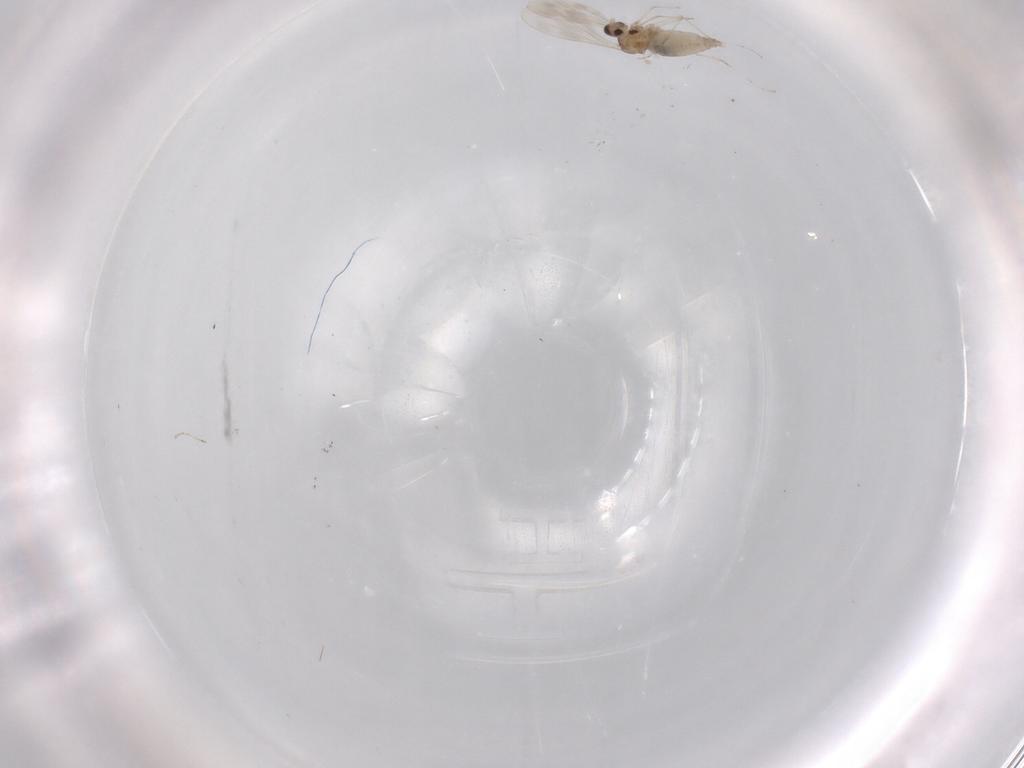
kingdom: Animalia
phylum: Arthropoda
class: Insecta
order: Diptera
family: Cecidomyiidae
